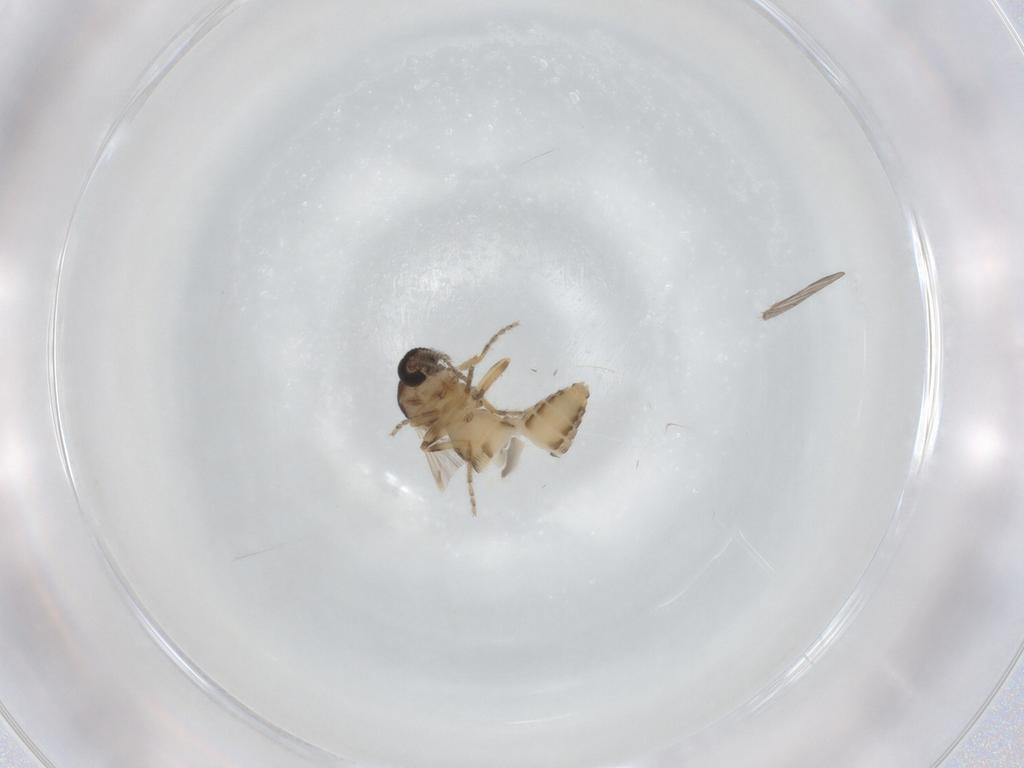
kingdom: Animalia
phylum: Arthropoda
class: Insecta
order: Diptera
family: Ceratopogonidae
